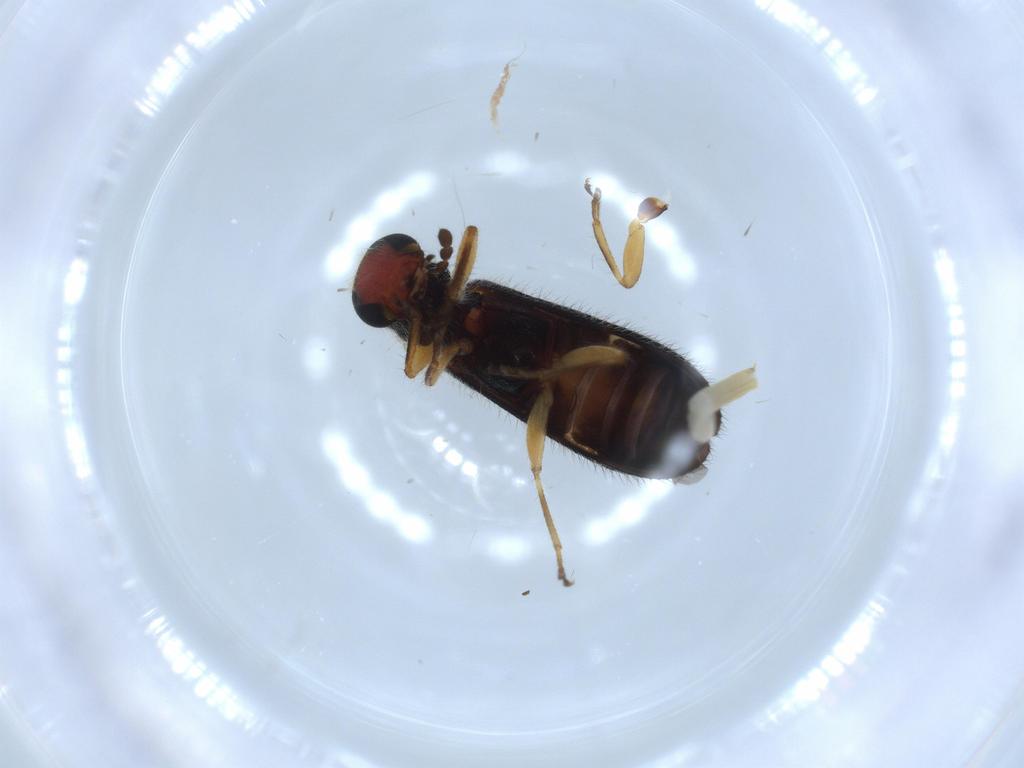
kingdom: Animalia
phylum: Arthropoda
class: Insecta
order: Coleoptera
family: Cleridae
